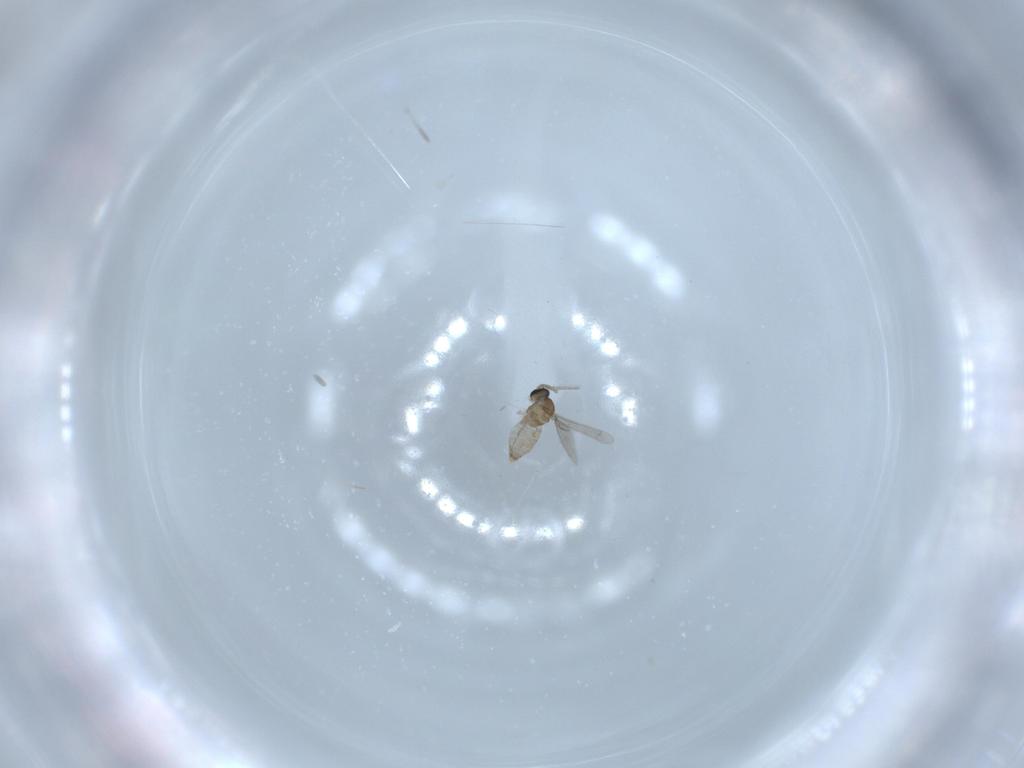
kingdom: Animalia
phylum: Arthropoda
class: Insecta
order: Diptera
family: Cecidomyiidae
